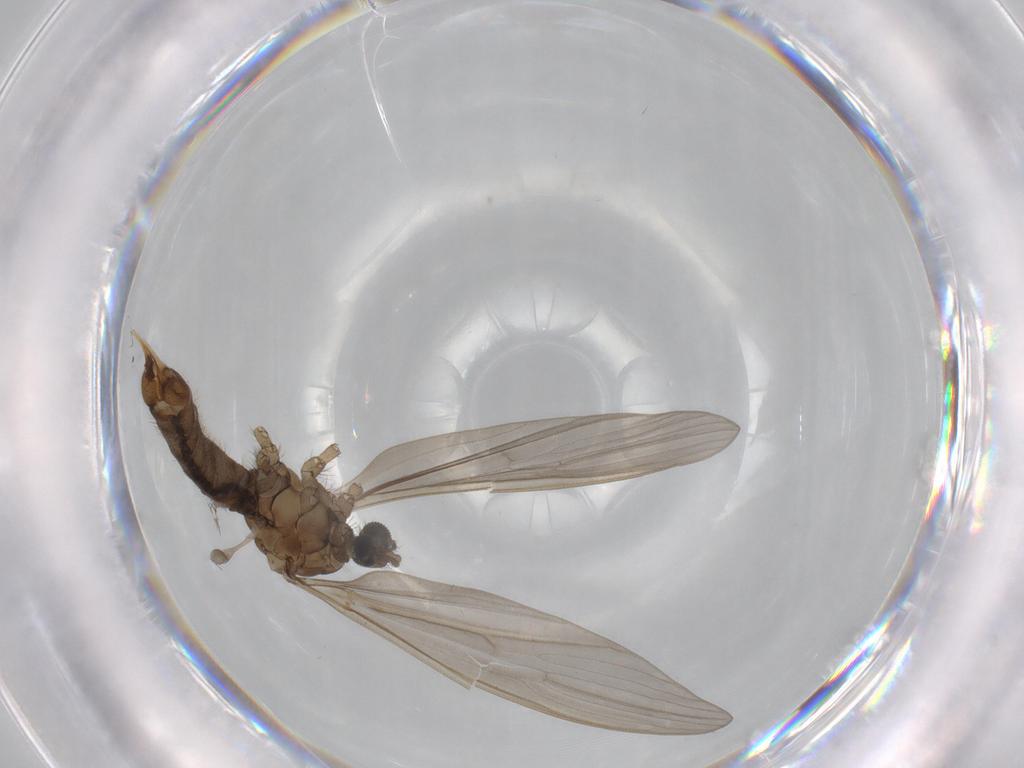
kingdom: Animalia
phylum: Arthropoda
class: Insecta
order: Diptera
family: Limoniidae
